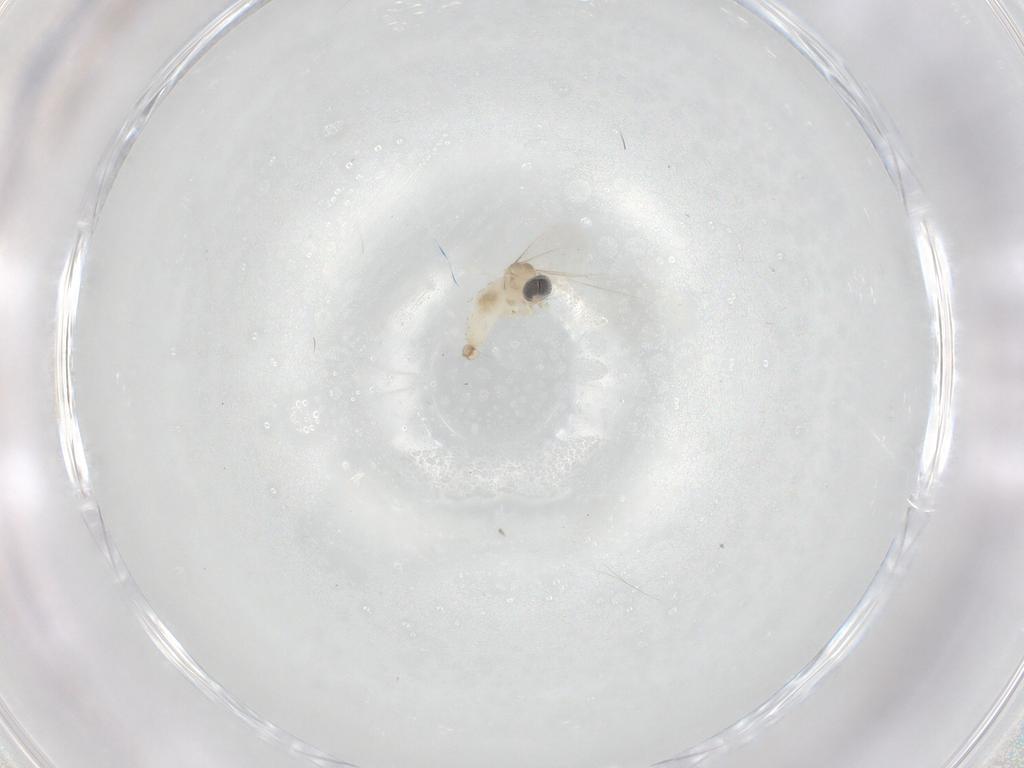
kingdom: Animalia
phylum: Arthropoda
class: Insecta
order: Diptera
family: Cecidomyiidae
